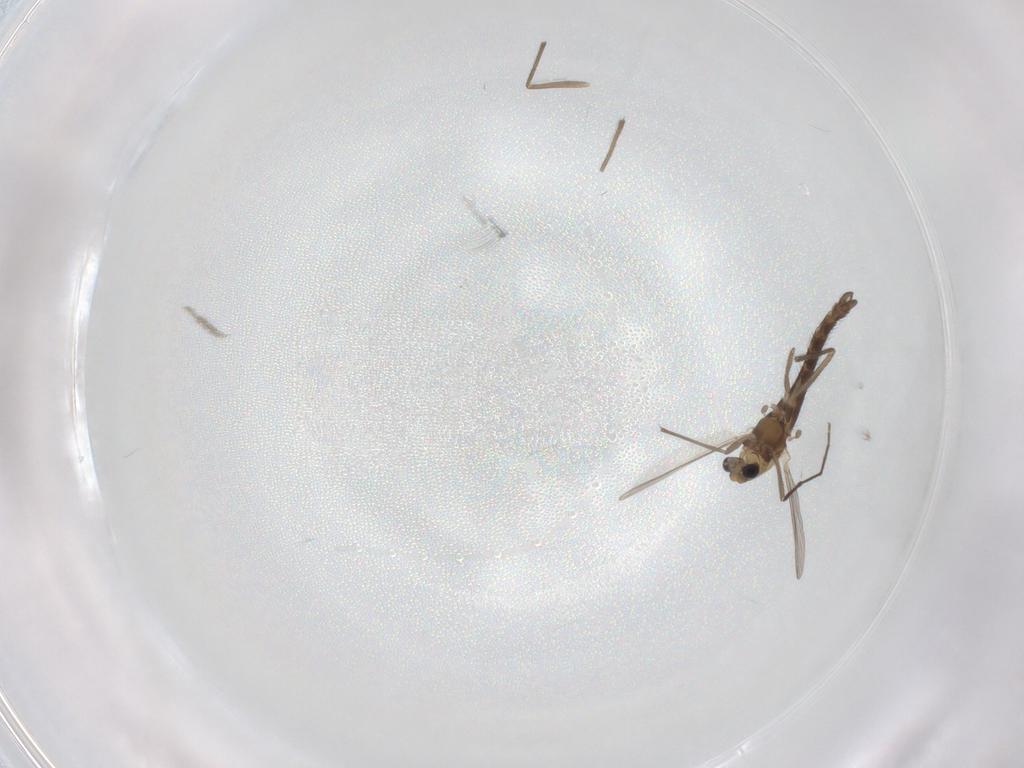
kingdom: Animalia
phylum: Arthropoda
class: Insecta
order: Diptera
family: Chironomidae
